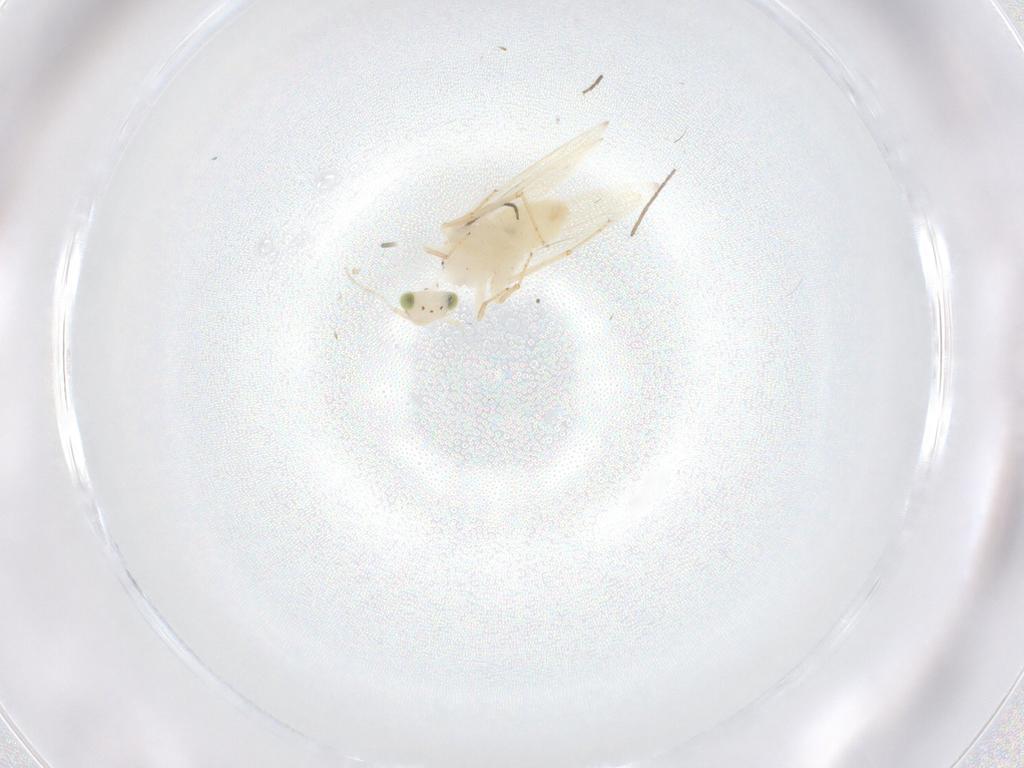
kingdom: Animalia
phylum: Arthropoda
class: Insecta
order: Psocodea
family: Lepidopsocidae
